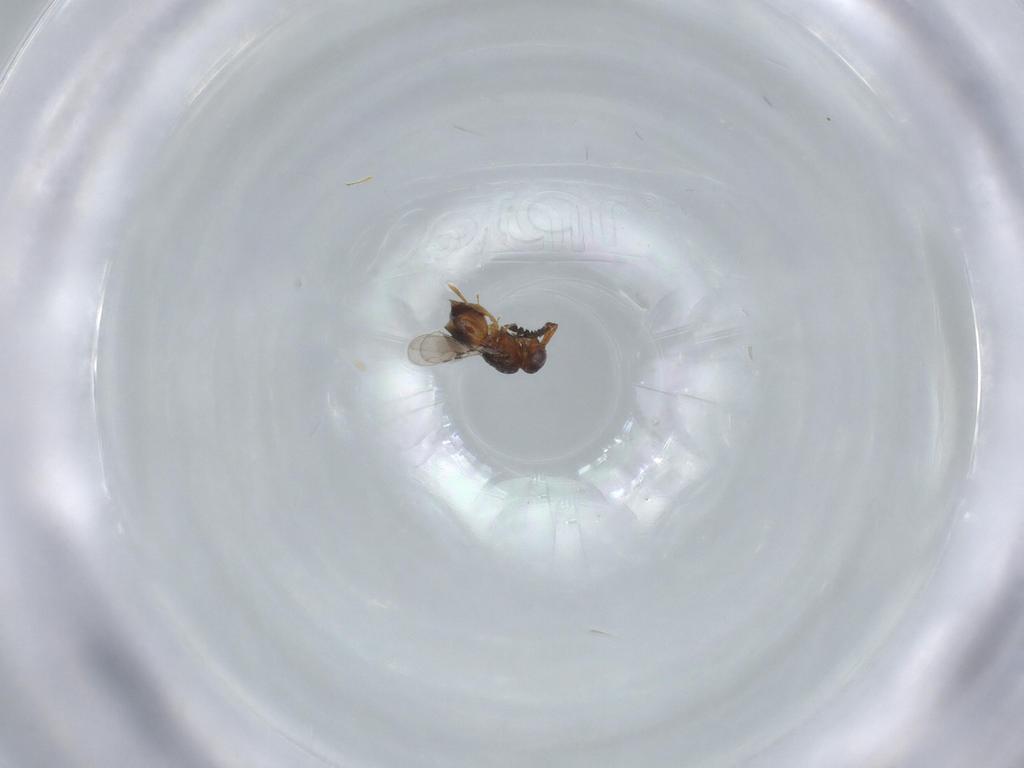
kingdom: Animalia
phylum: Arthropoda
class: Insecta
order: Hymenoptera
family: Ceraphronidae
